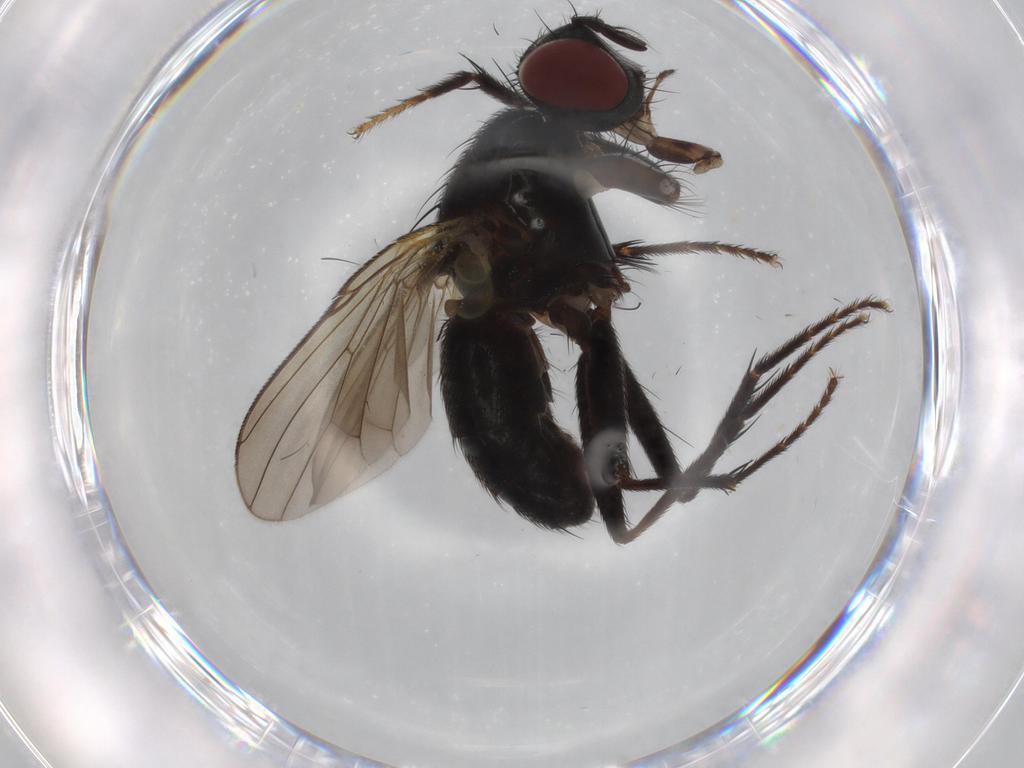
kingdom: Animalia
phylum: Arthropoda
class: Insecta
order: Diptera
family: Muscidae
